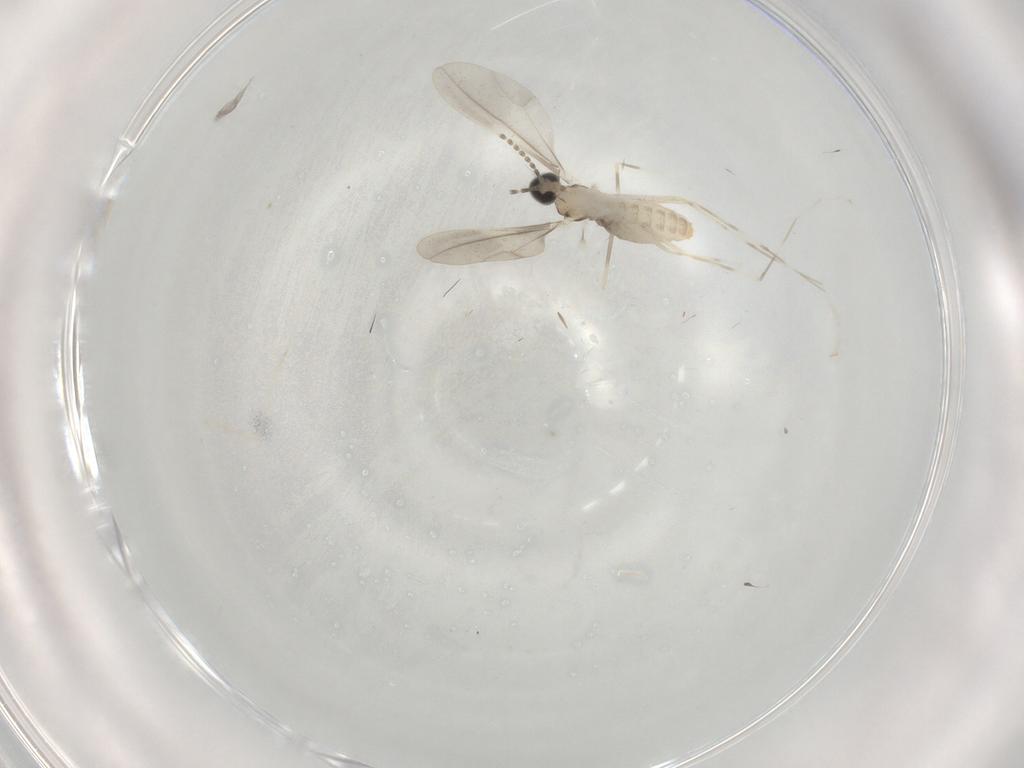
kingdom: Animalia
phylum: Arthropoda
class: Insecta
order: Diptera
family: Cecidomyiidae
